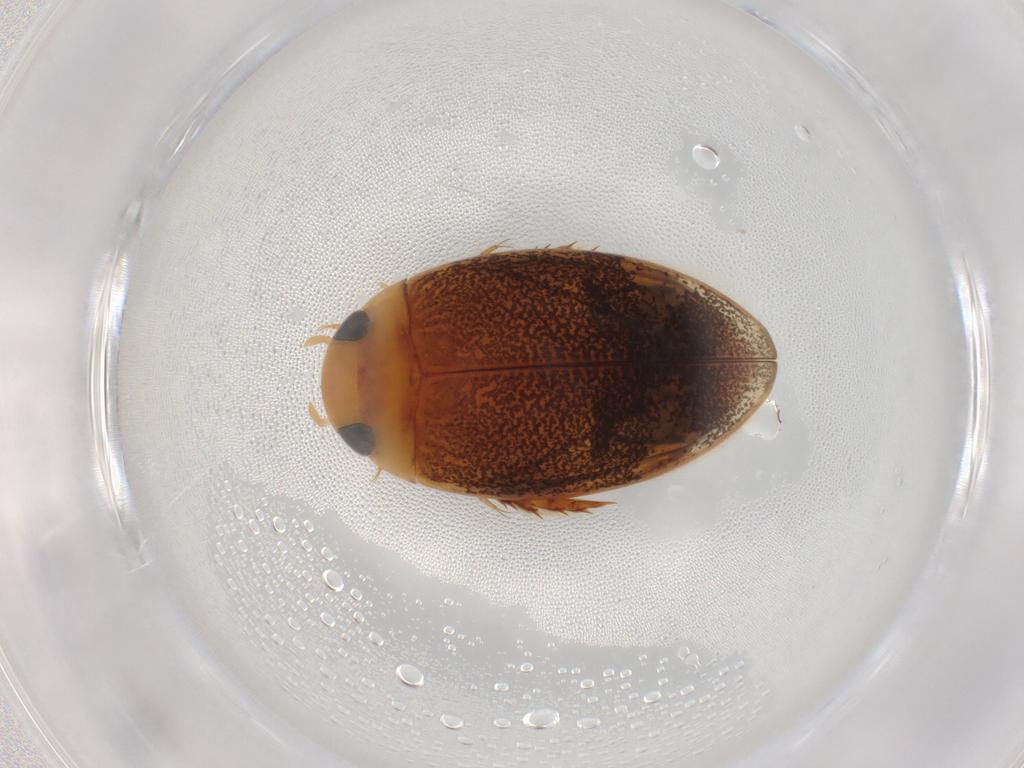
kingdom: Animalia
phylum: Arthropoda
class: Insecta
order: Coleoptera
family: Dytiscidae
